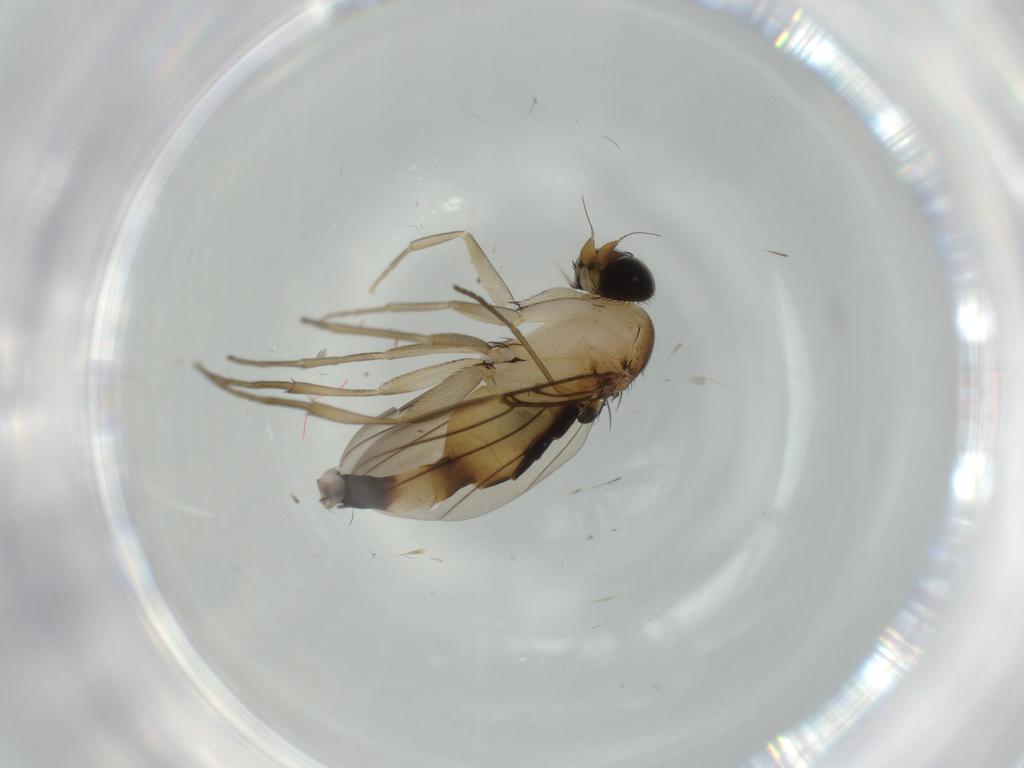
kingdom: Animalia
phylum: Arthropoda
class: Insecta
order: Diptera
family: Phoridae
